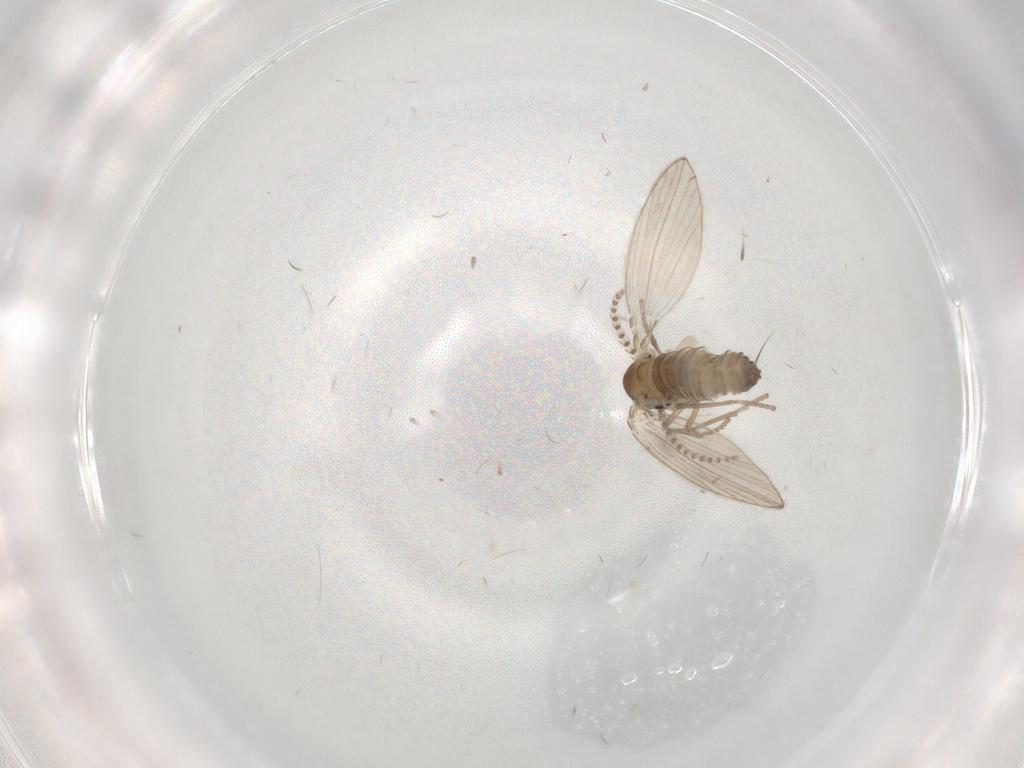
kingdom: Animalia
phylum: Arthropoda
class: Insecta
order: Diptera
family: Psychodidae
